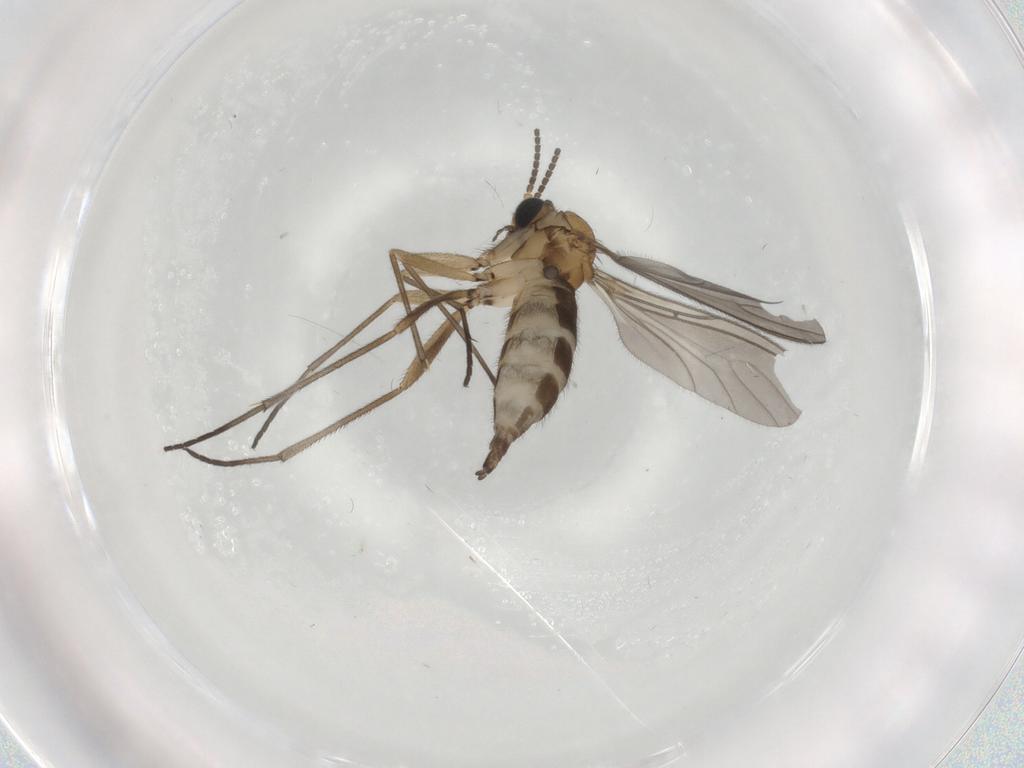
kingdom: Animalia
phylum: Arthropoda
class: Insecta
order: Diptera
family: Sciaridae
